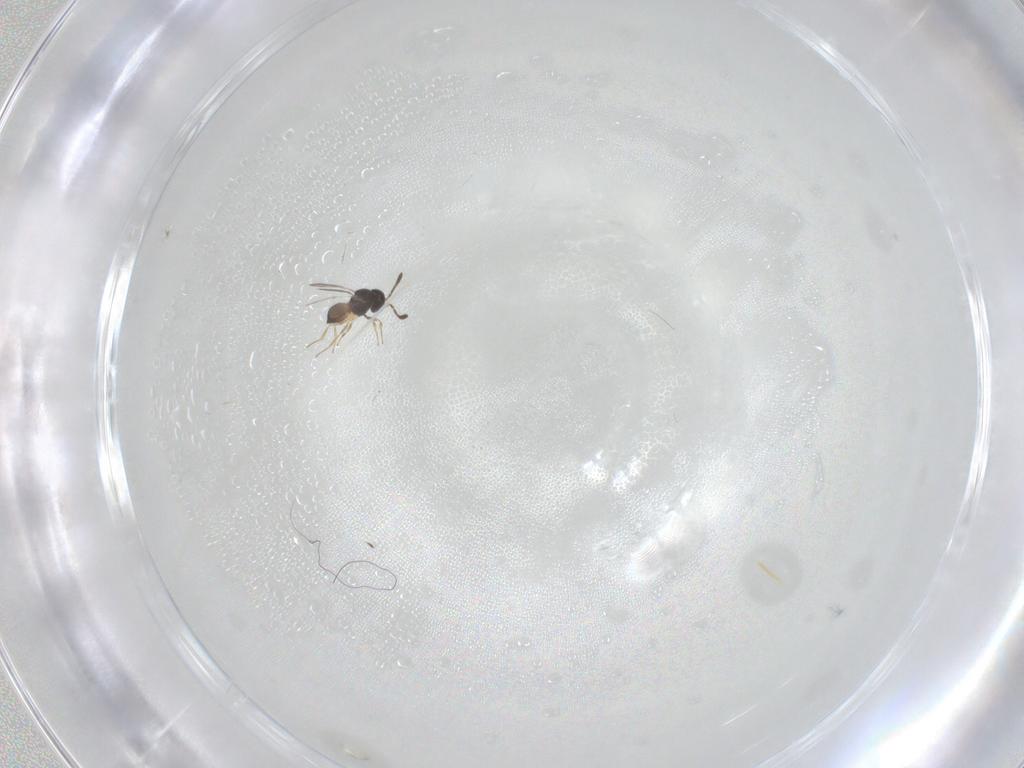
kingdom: Animalia
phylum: Arthropoda
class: Insecta
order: Hymenoptera
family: Scelionidae
